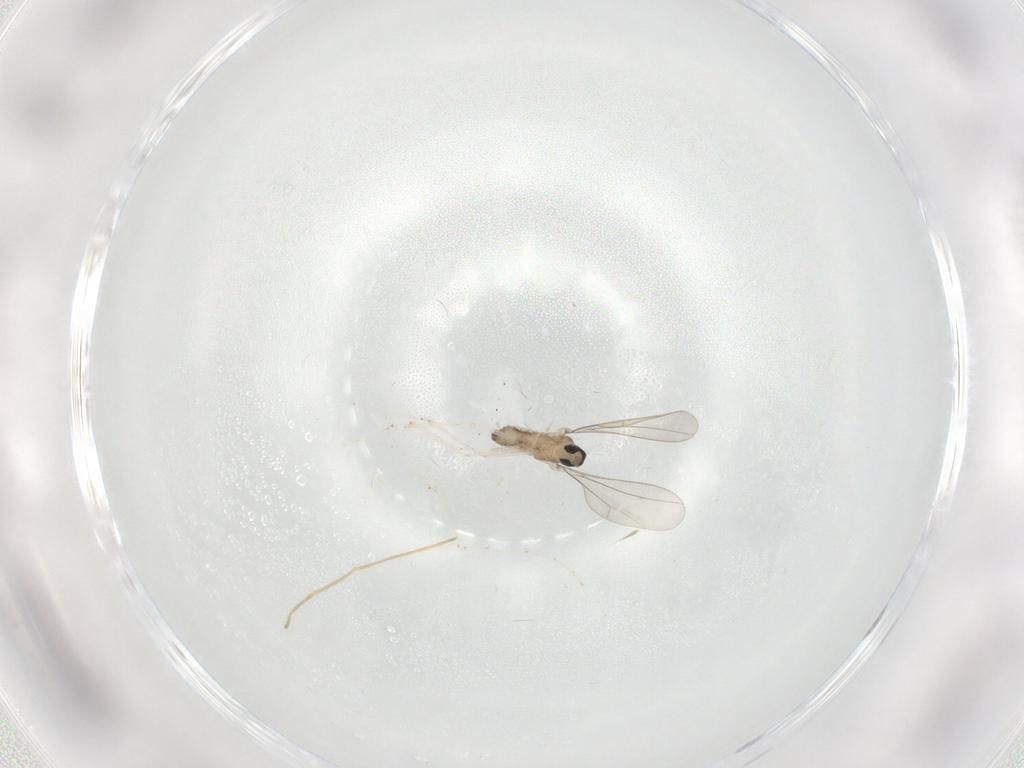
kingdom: Animalia
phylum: Arthropoda
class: Insecta
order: Diptera
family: Cecidomyiidae
